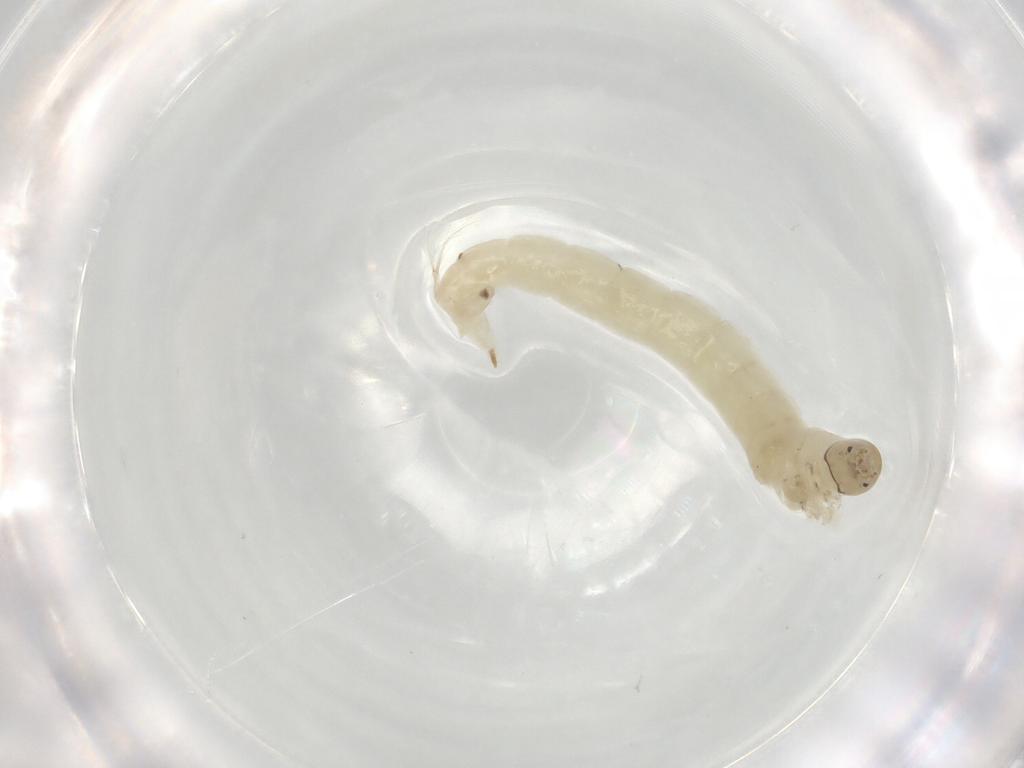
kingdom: Animalia
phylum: Arthropoda
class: Insecta
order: Diptera
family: Chironomidae
